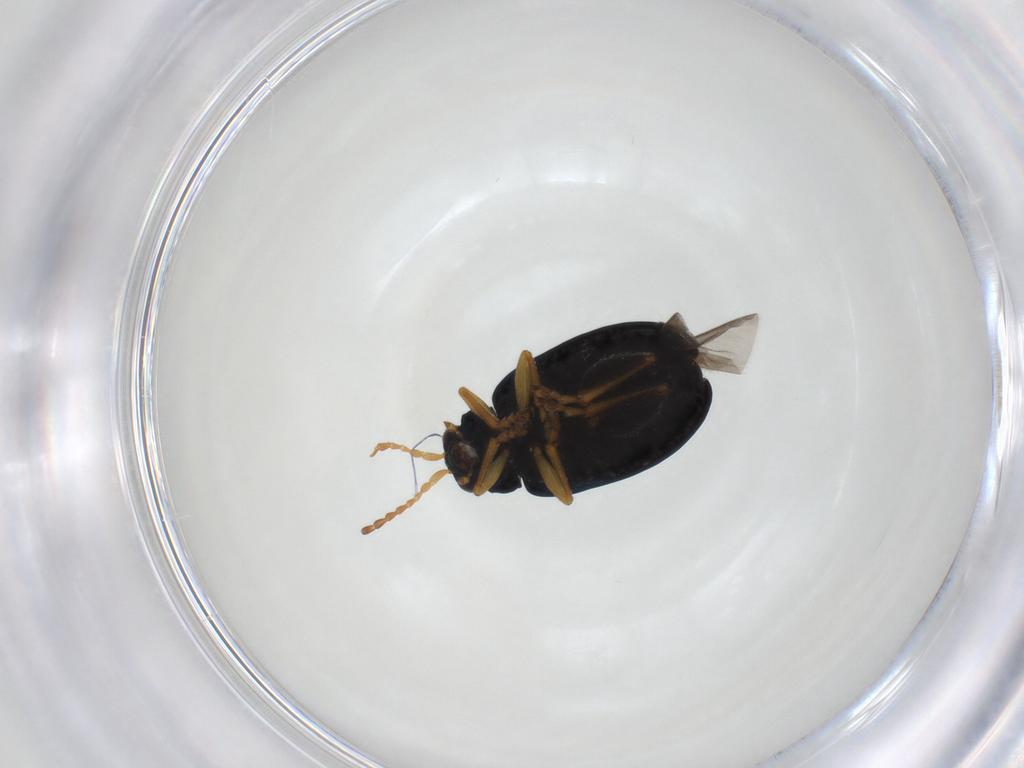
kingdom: Animalia
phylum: Arthropoda
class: Insecta
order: Coleoptera
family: Chrysomelidae
